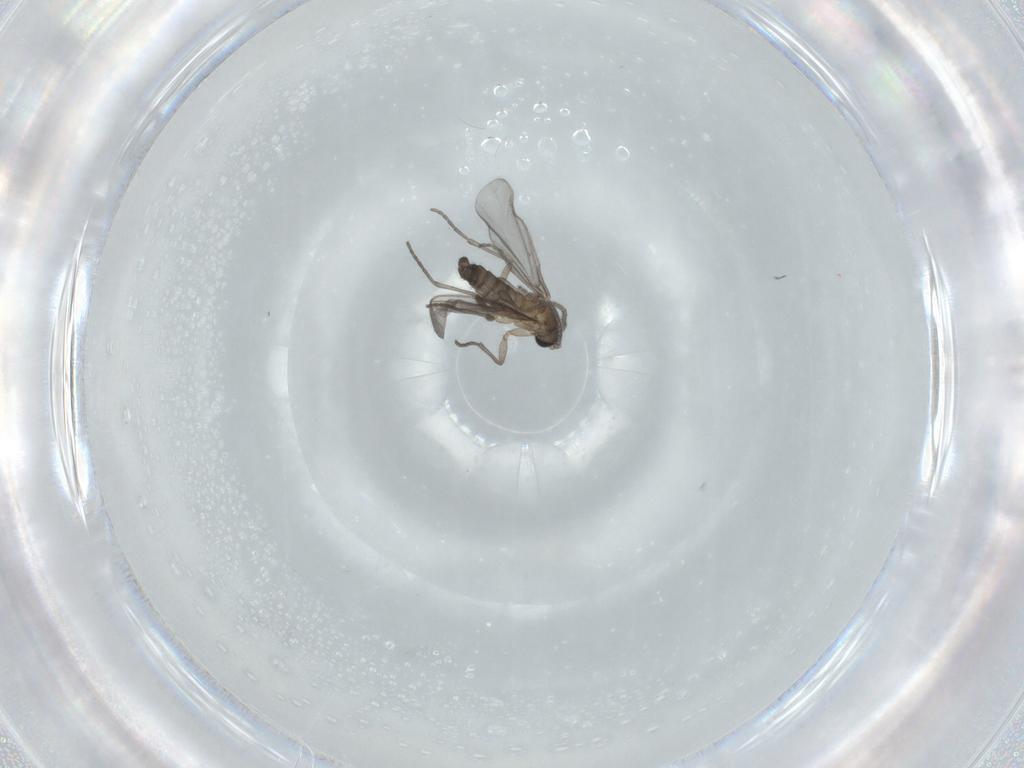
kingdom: Animalia
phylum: Arthropoda
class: Insecta
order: Diptera
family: Sciaridae
